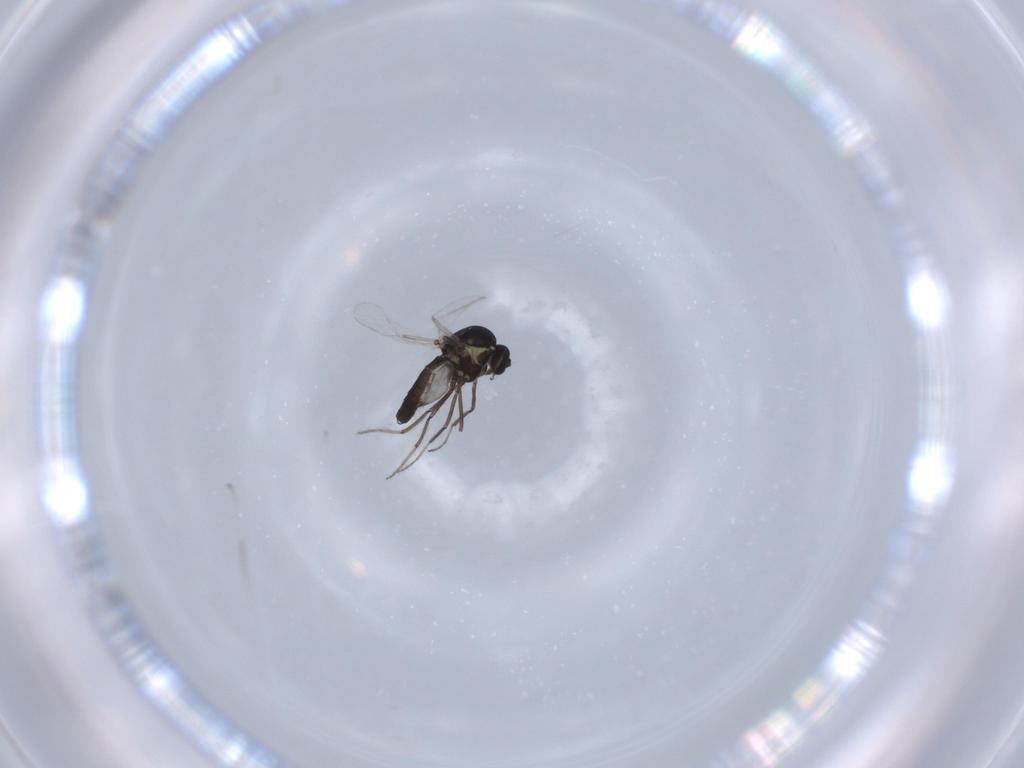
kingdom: Animalia
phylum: Arthropoda
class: Insecta
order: Diptera
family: Ceratopogonidae
